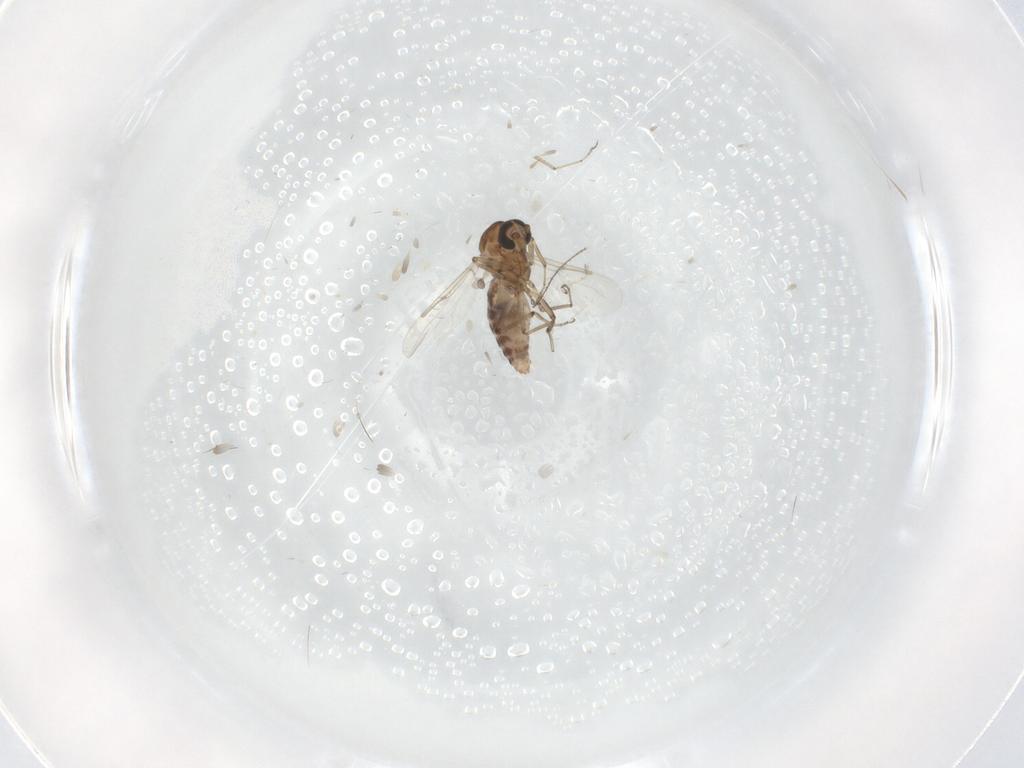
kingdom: Animalia
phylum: Arthropoda
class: Insecta
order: Diptera
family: Chironomidae
